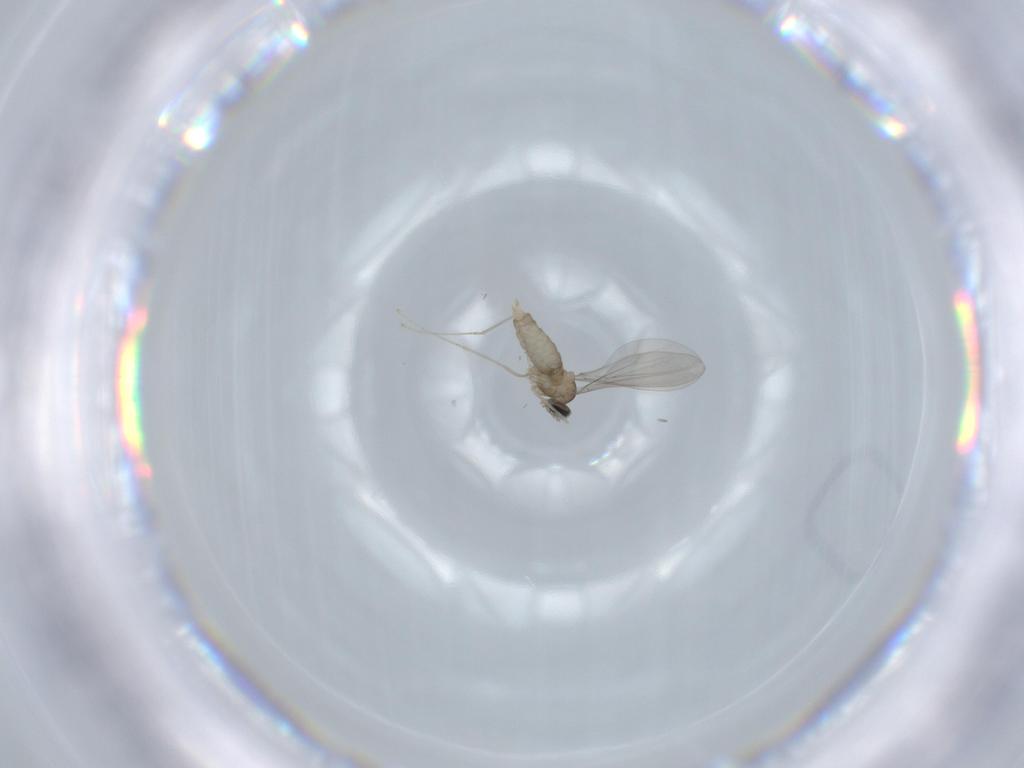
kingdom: Animalia
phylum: Arthropoda
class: Insecta
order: Diptera
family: Cecidomyiidae
